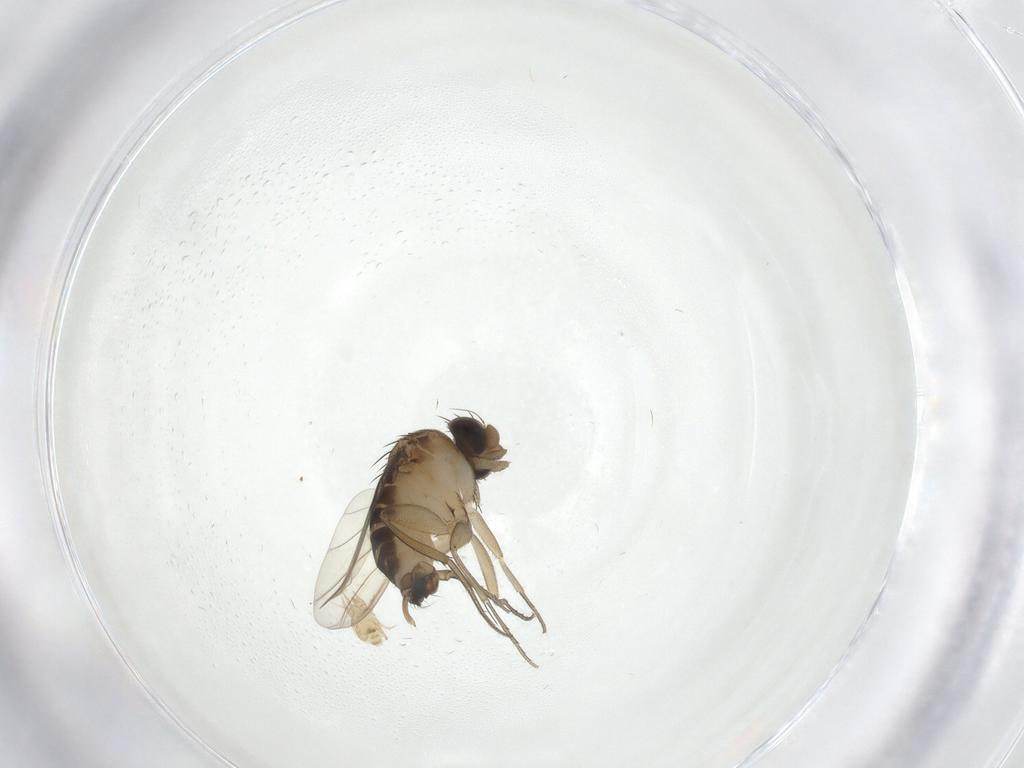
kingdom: Animalia
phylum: Arthropoda
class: Insecta
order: Diptera
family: Phoridae
